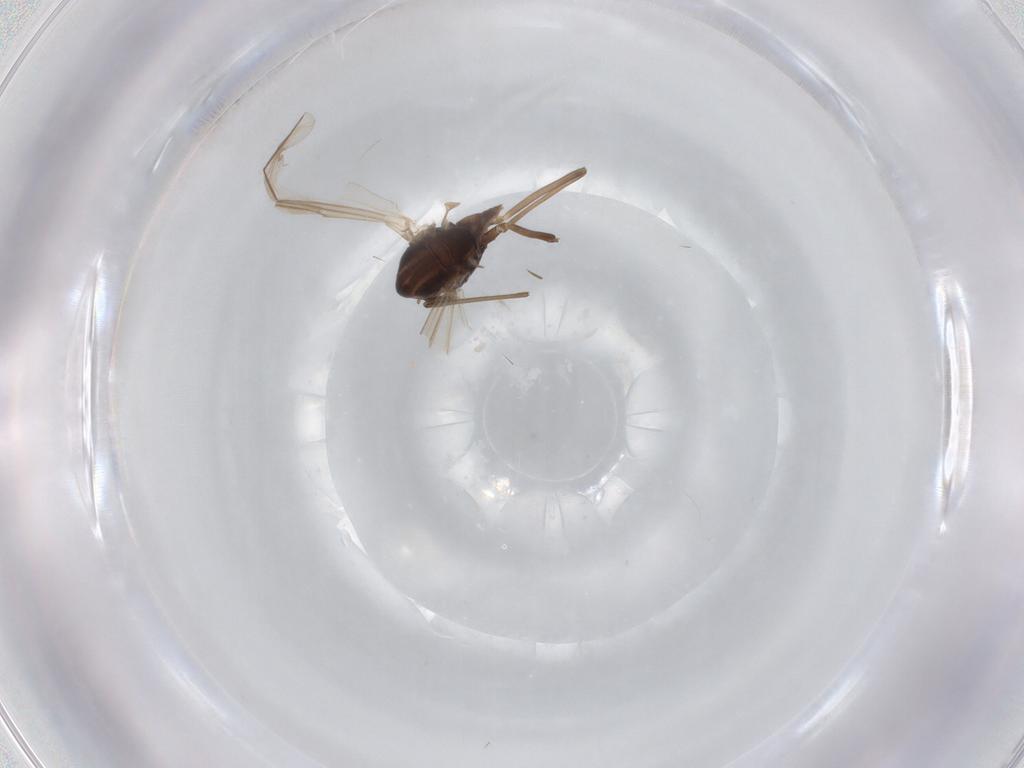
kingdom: Animalia
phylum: Arthropoda
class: Insecta
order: Diptera
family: Chironomidae
